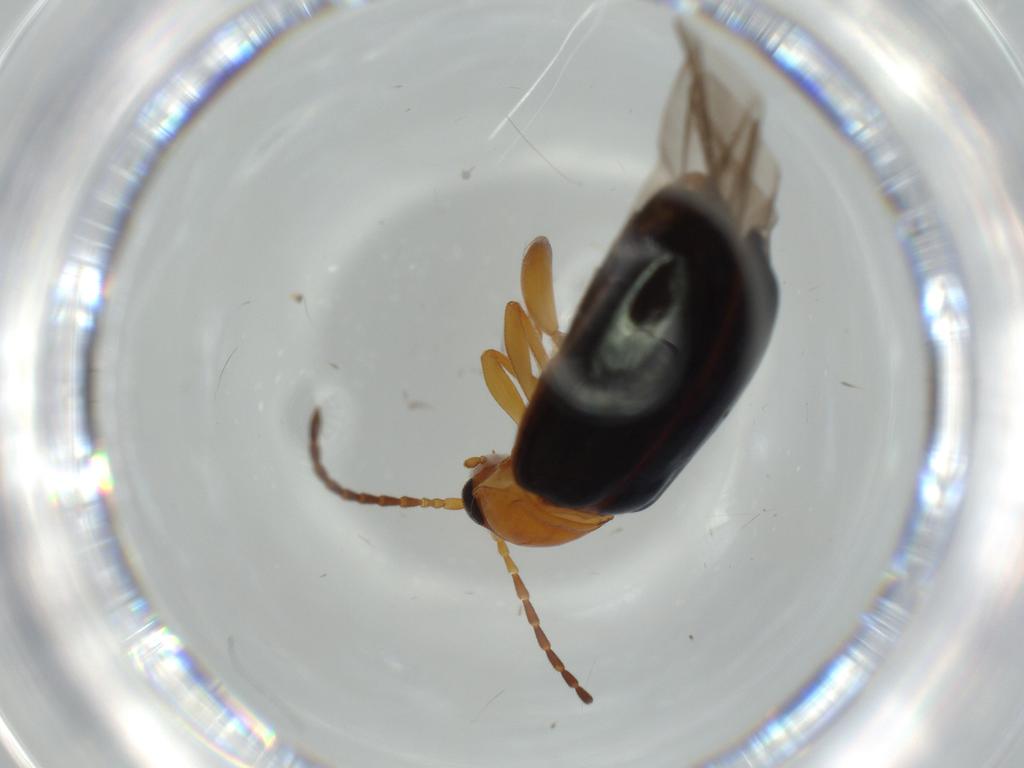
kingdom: Animalia
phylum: Arthropoda
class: Insecta
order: Coleoptera
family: Chrysomelidae
